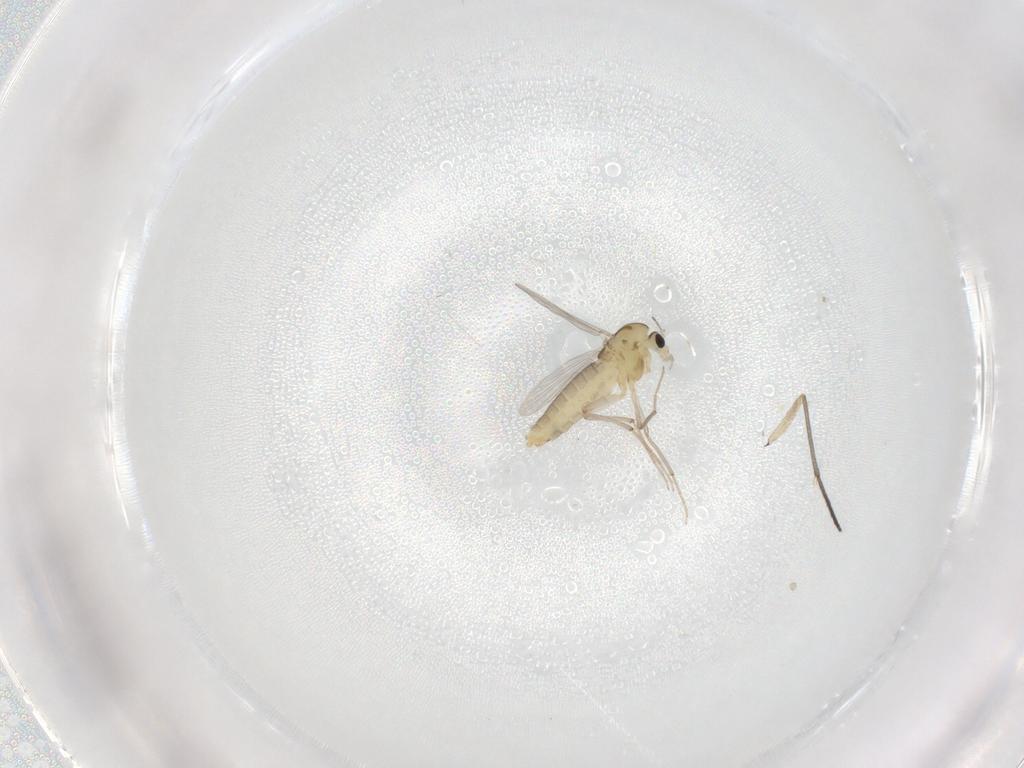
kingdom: Animalia
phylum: Arthropoda
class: Insecta
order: Diptera
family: Chironomidae
